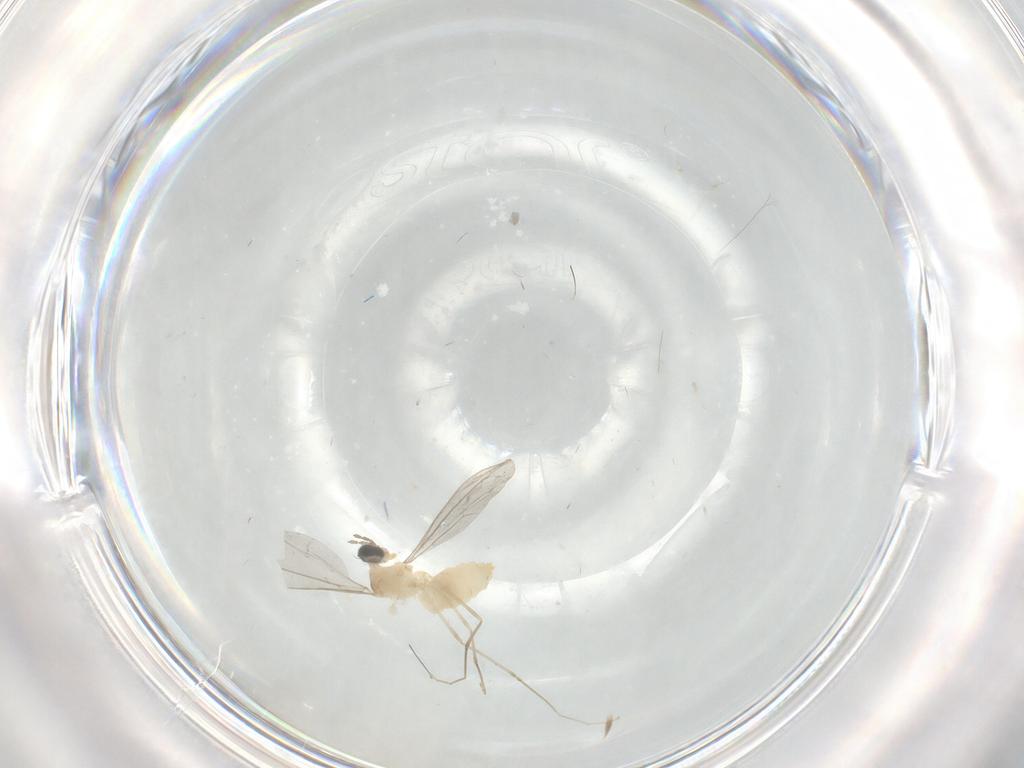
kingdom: Animalia
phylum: Arthropoda
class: Insecta
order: Diptera
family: Cecidomyiidae
